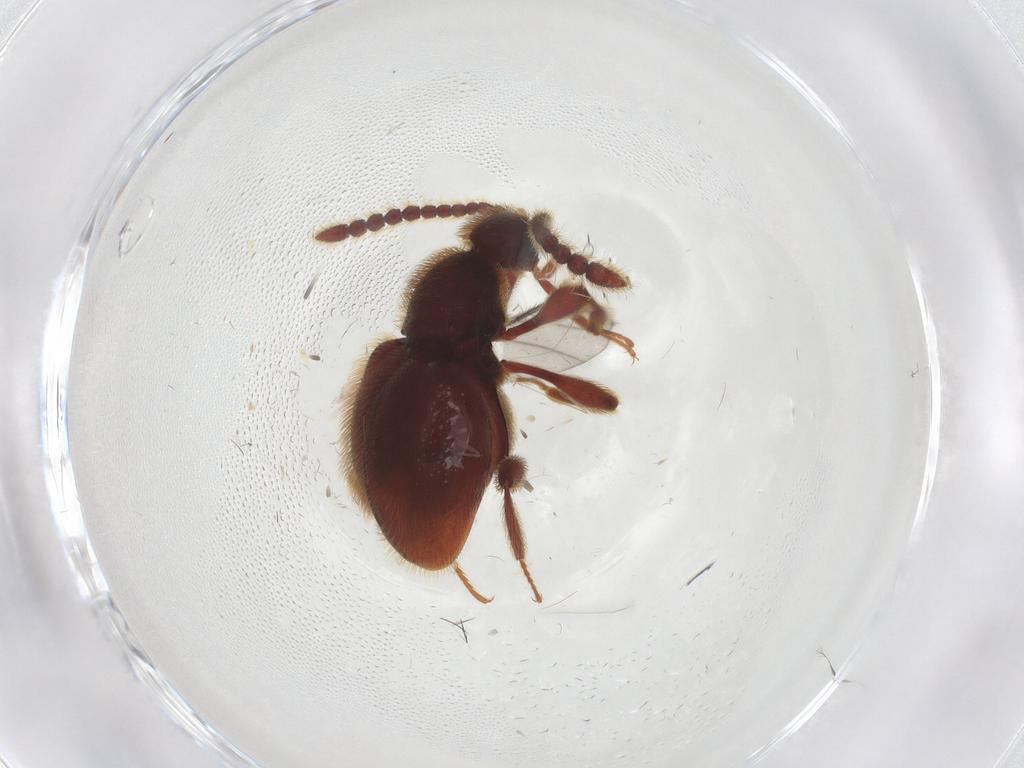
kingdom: Animalia
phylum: Arthropoda
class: Insecta
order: Coleoptera
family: Staphylinidae
